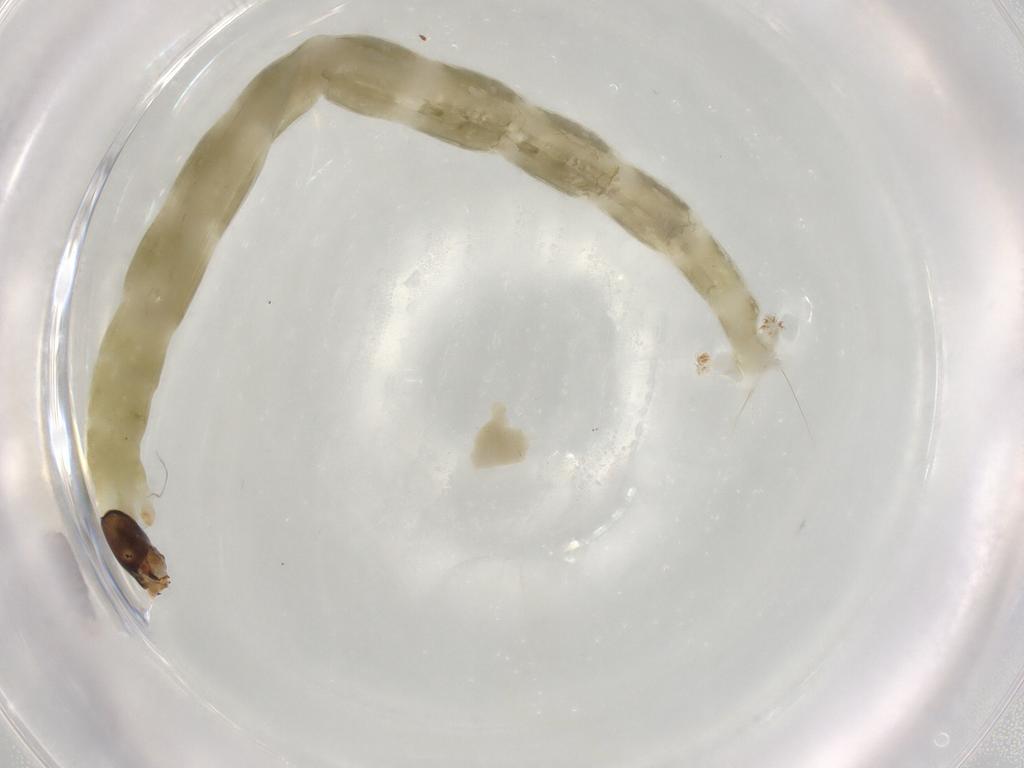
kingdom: Animalia
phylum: Arthropoda
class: Insecta
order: Diptera
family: Chironomidae
